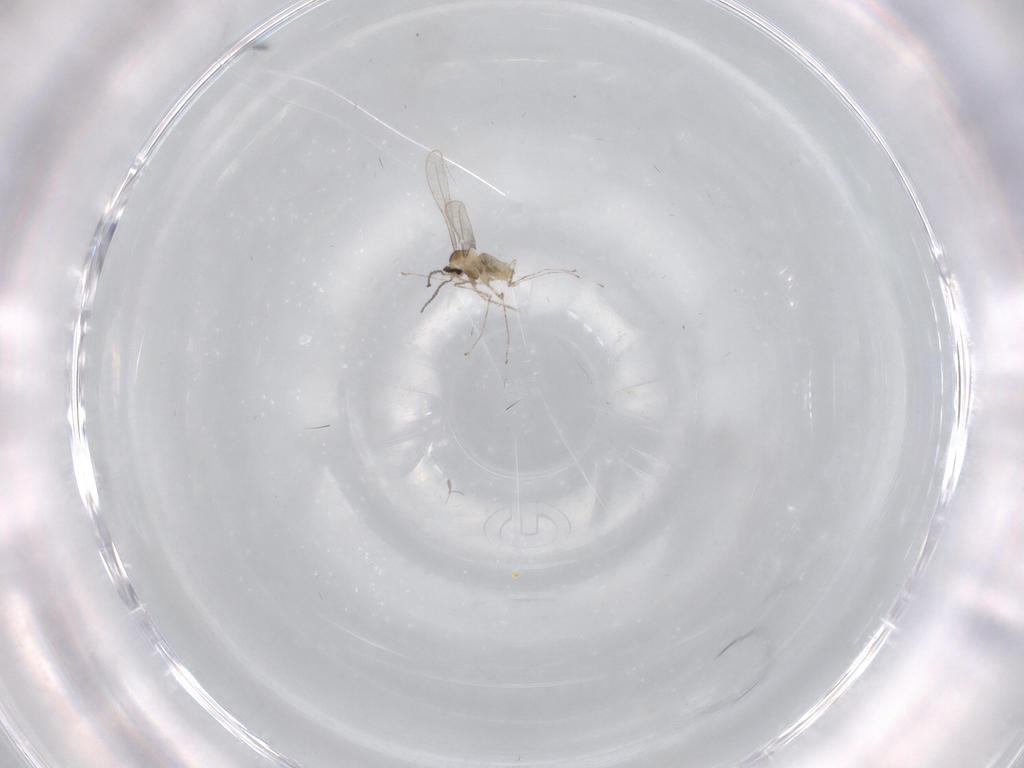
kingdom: Animalia
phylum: Arthropoda
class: Insecta
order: Diptera
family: Cecidomyiidae
